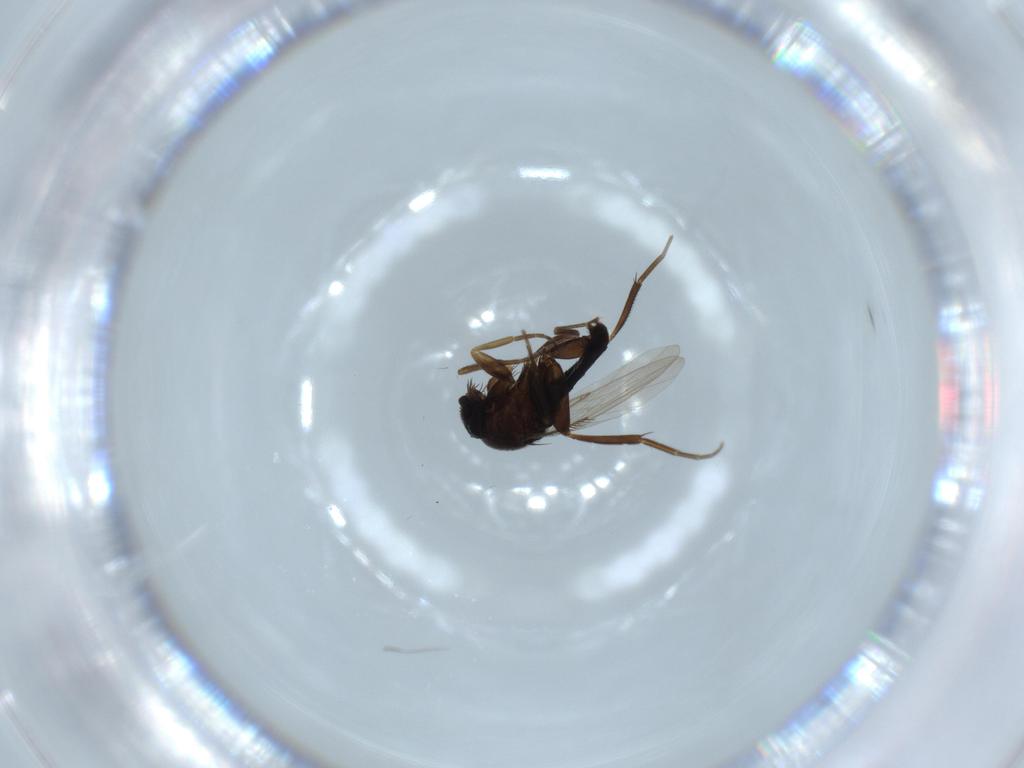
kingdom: Animalia
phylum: Arthropoda
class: Insecta
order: Diptera
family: Phoridae
